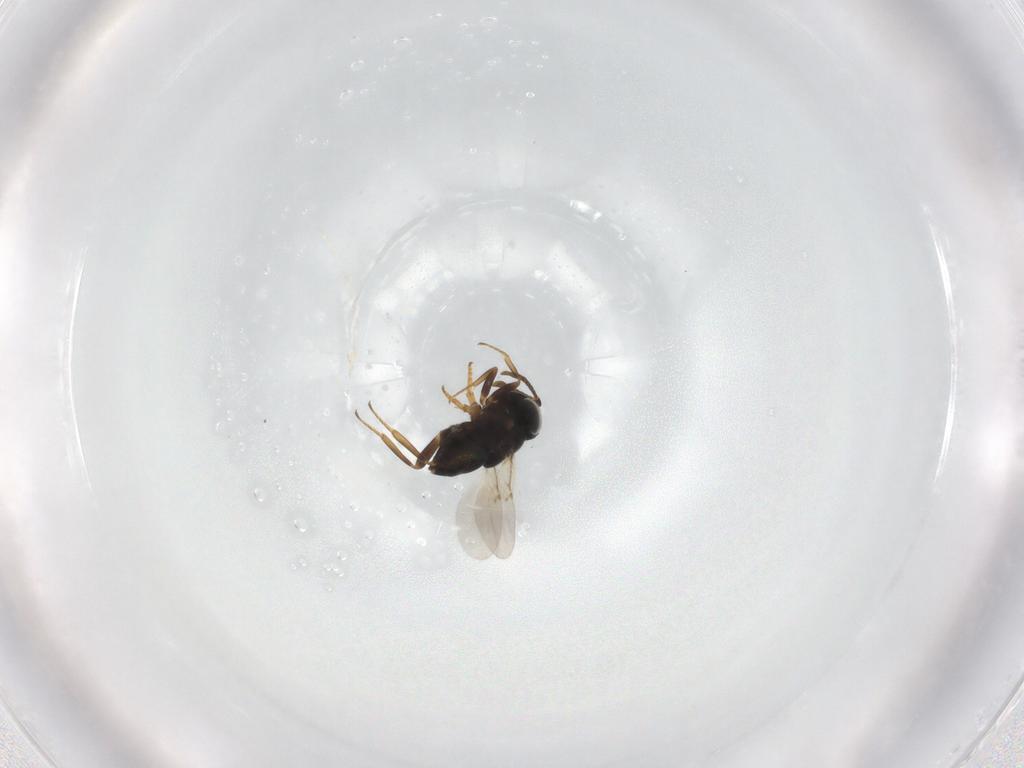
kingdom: Animalia
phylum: Arthropoda
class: Insecta
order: Hymenoptera
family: Encyrtidae
